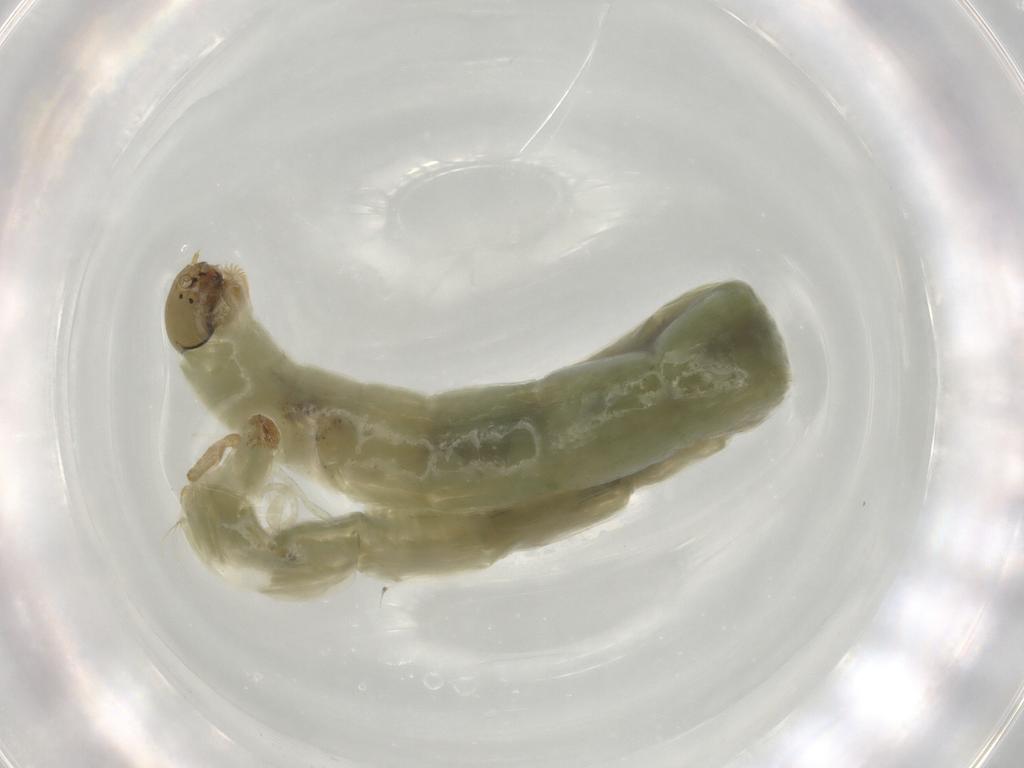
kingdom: Animalia
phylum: Arthropoda
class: Insecta
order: Diptera
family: Chironomidae
